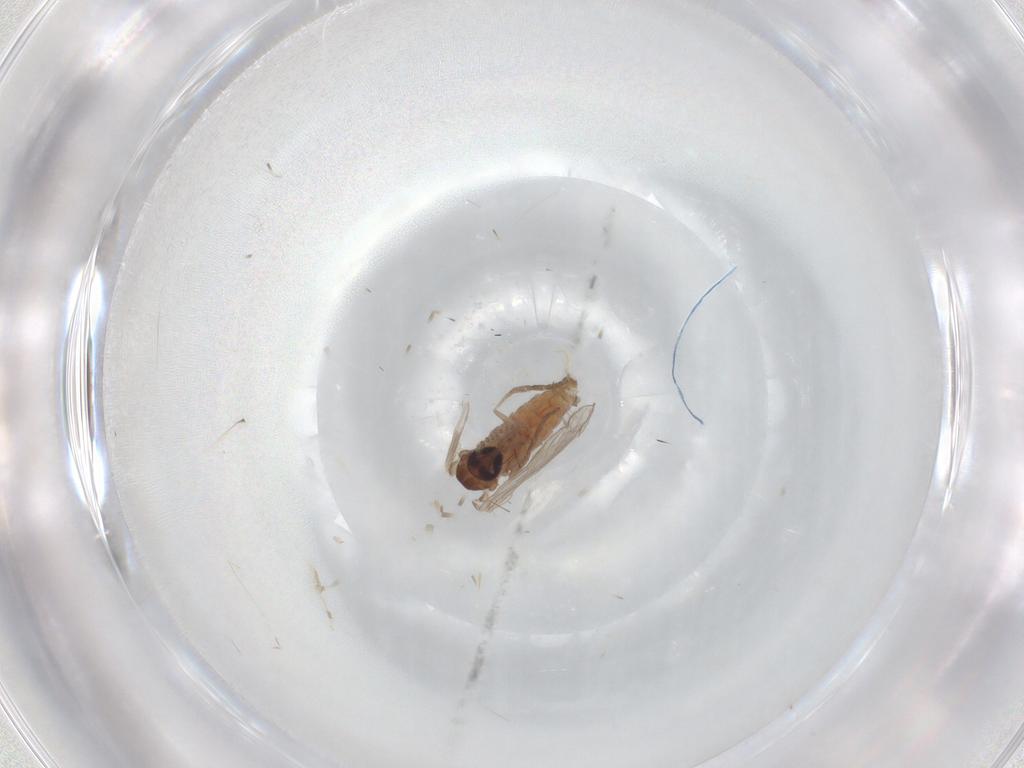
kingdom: Animalia
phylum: Arthropoda
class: Insecta
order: Diptera
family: Psychodidae
